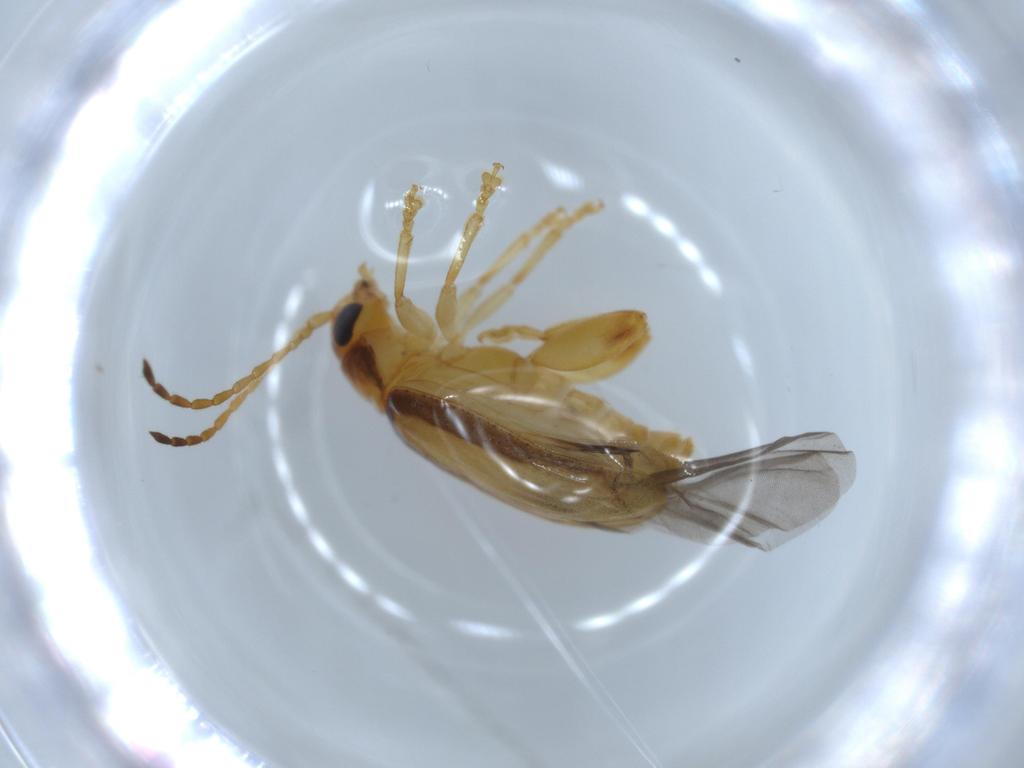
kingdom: Animalia
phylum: Arthropoda
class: Insecta
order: Coleoptera
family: Chrysomelidae
